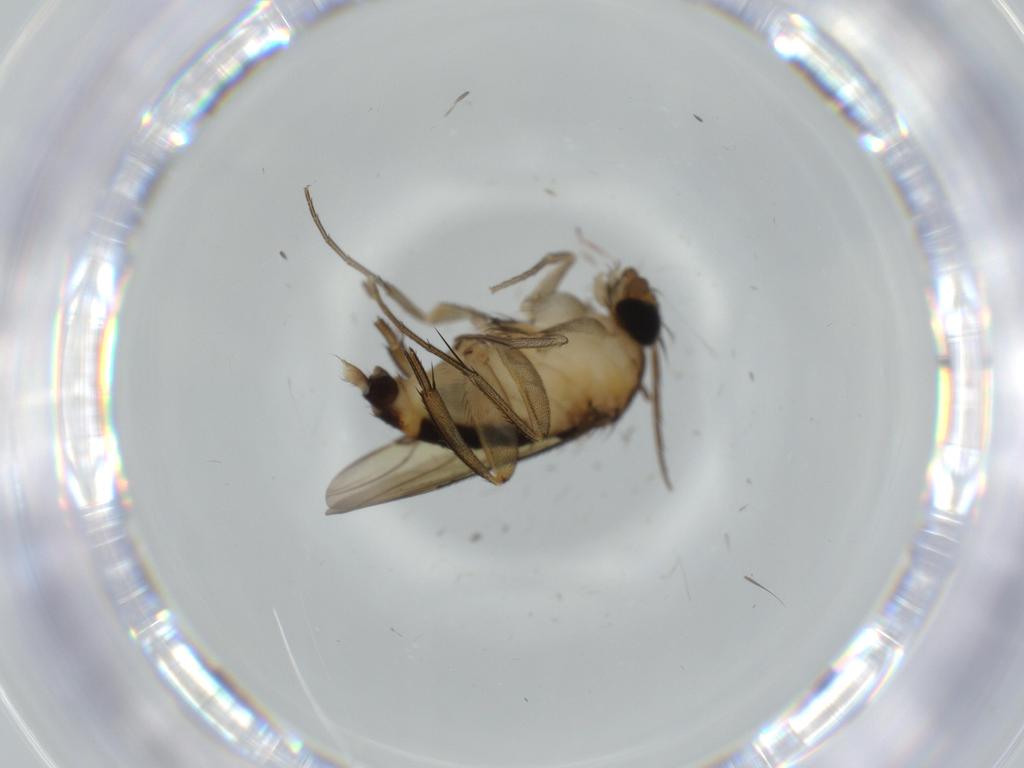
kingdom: Animalia
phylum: Arthropoda
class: Insecta
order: Diptera
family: Phoridae
